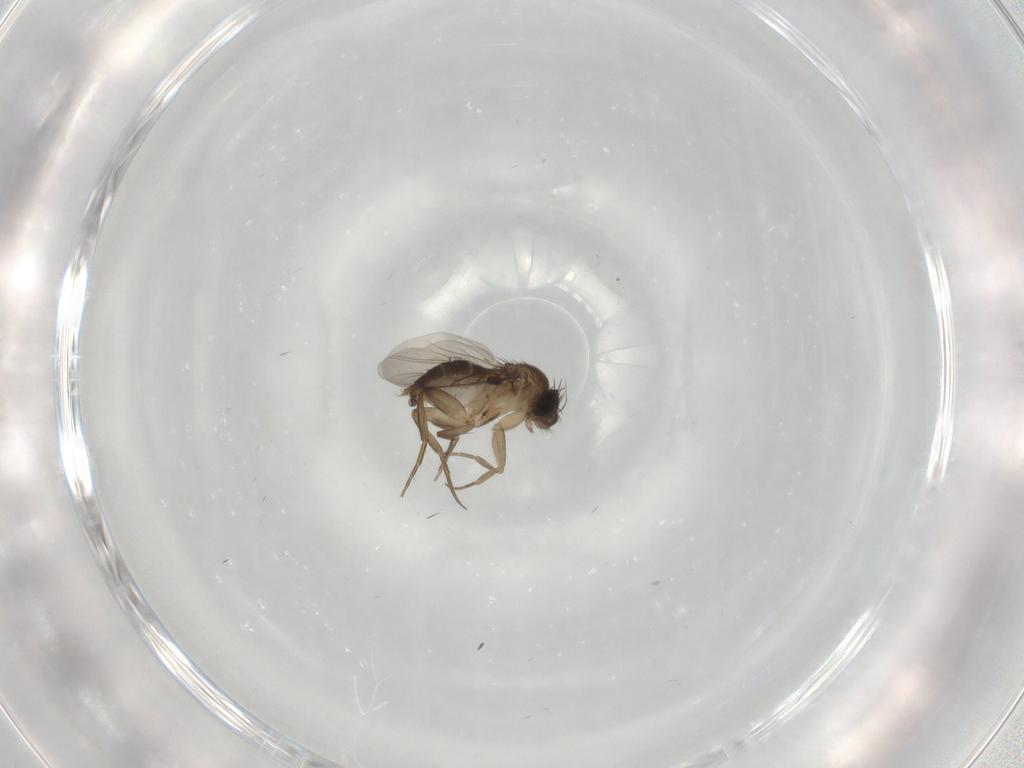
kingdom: Animalia
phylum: Arthropoda
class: Insecta
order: Diptera
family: Phoridae
